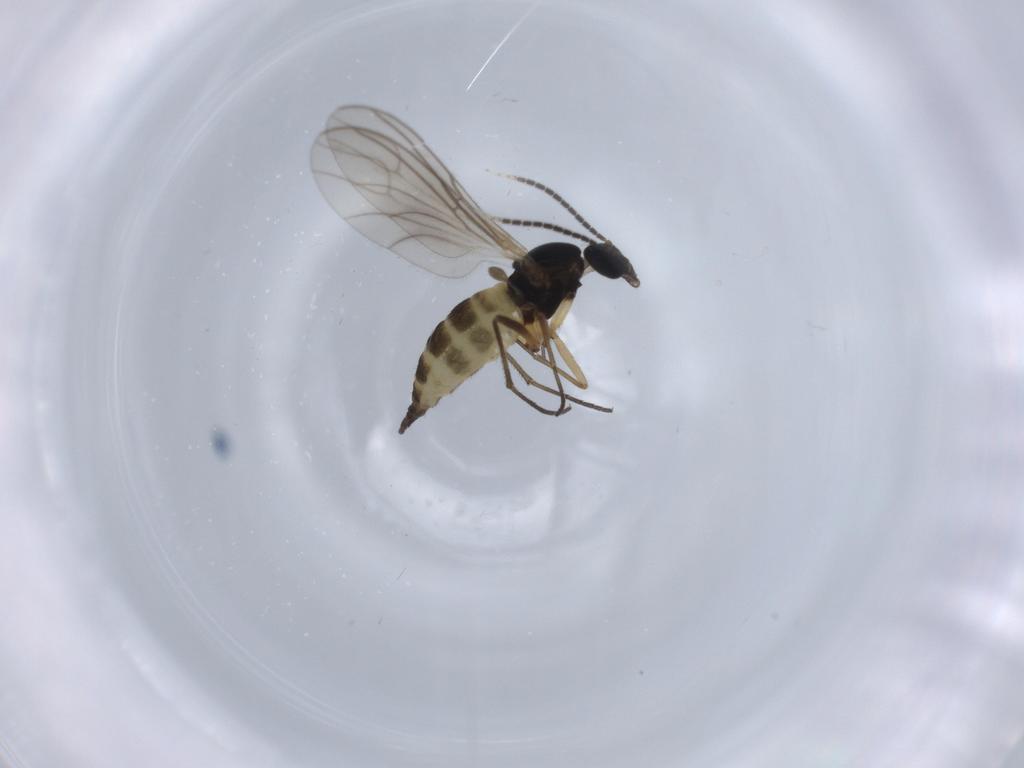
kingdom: Animalia
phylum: Arthropoda
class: Insecta
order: Diptera
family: Sciaridae
